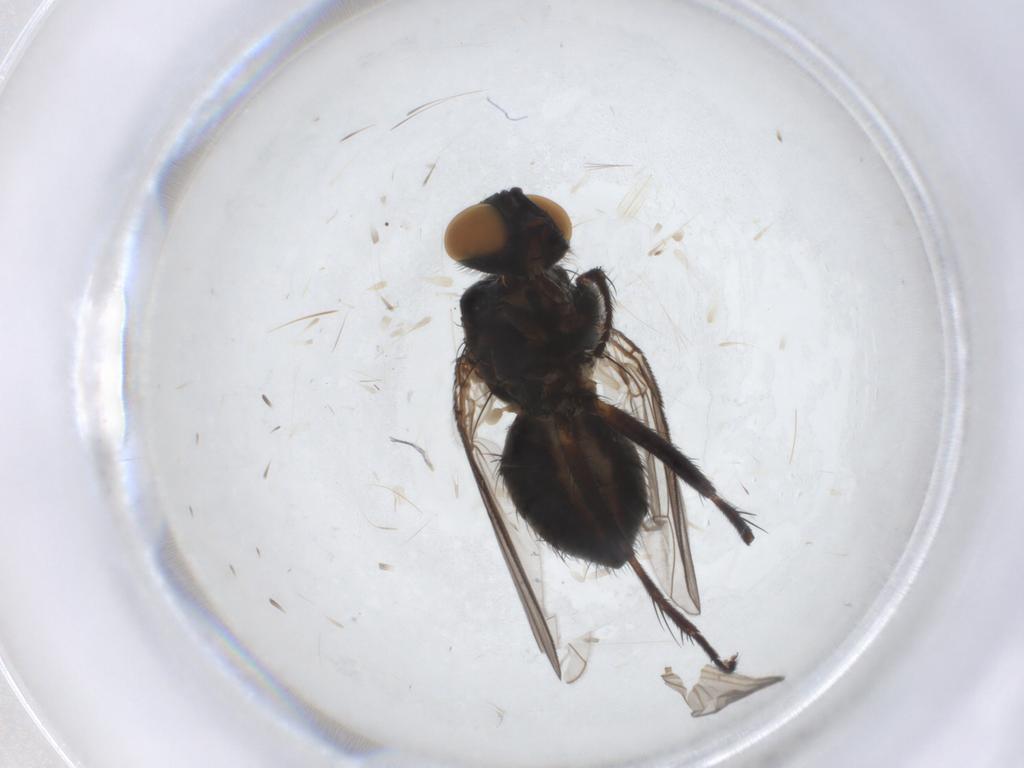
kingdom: Animalia
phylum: Arthropoda
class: Insecta
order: Diptera
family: Muscidae
